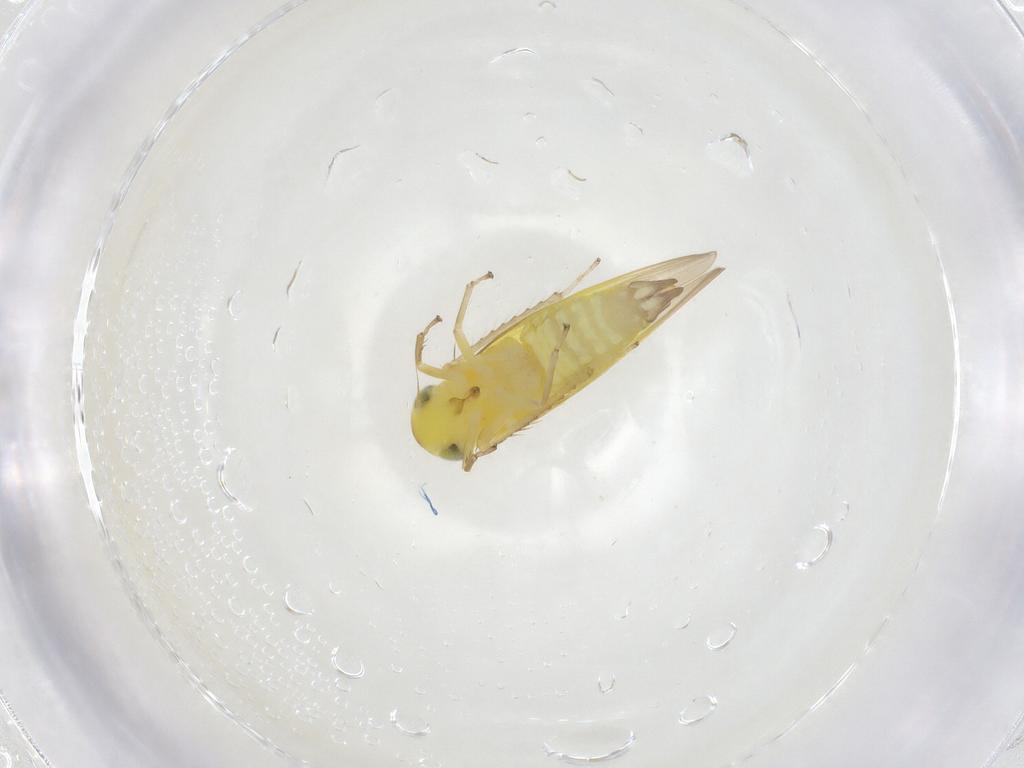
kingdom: Animalia
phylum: Arthropoda
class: Insecta
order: Hemiptera
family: Cicadellidae
